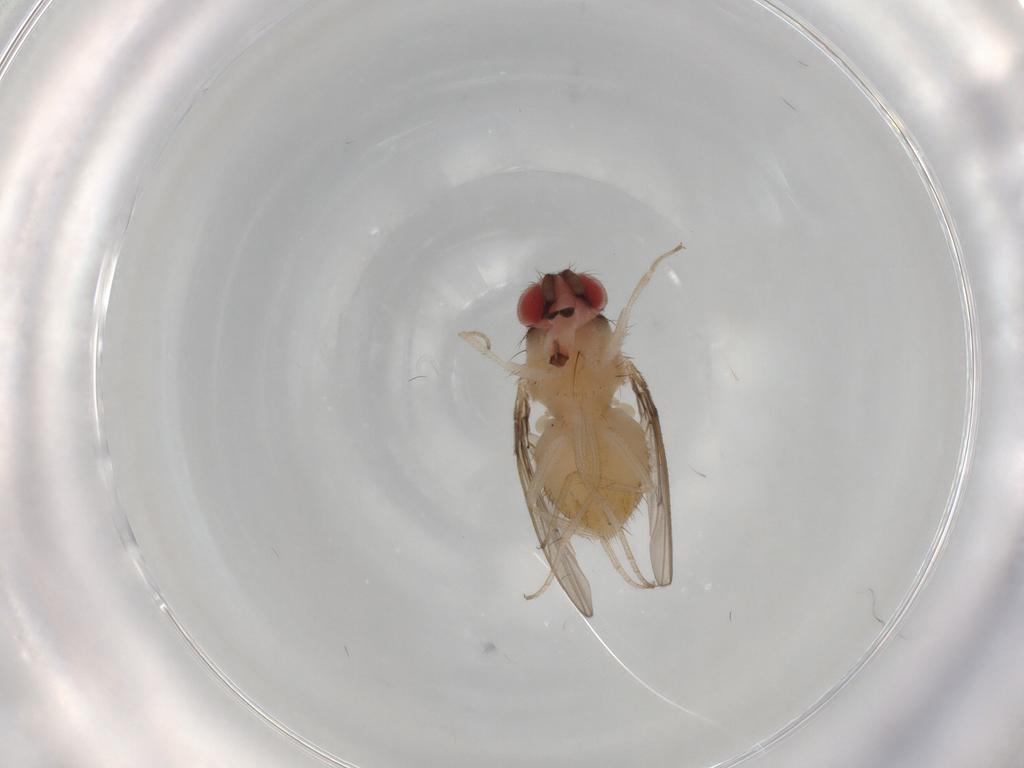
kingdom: Animalia
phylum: Arthropoda
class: Insecta
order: Diptera
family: Drosophilidae
